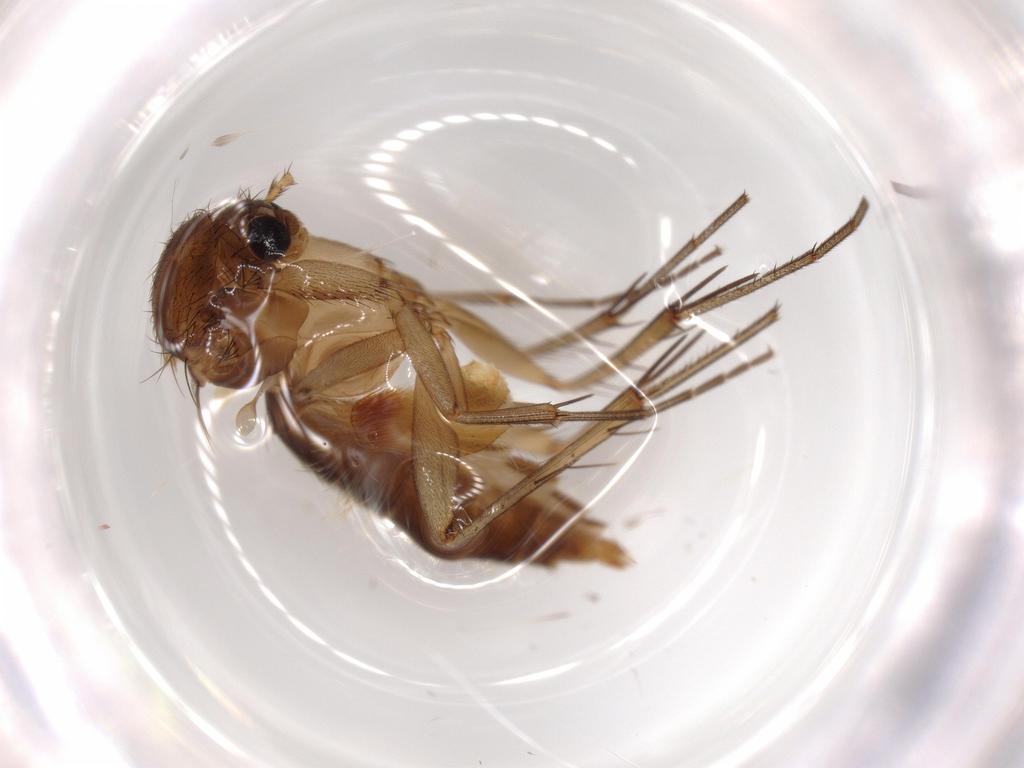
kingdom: Animalia
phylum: Arthropoda
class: Insecta
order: Diptera
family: Mycetophilidae
